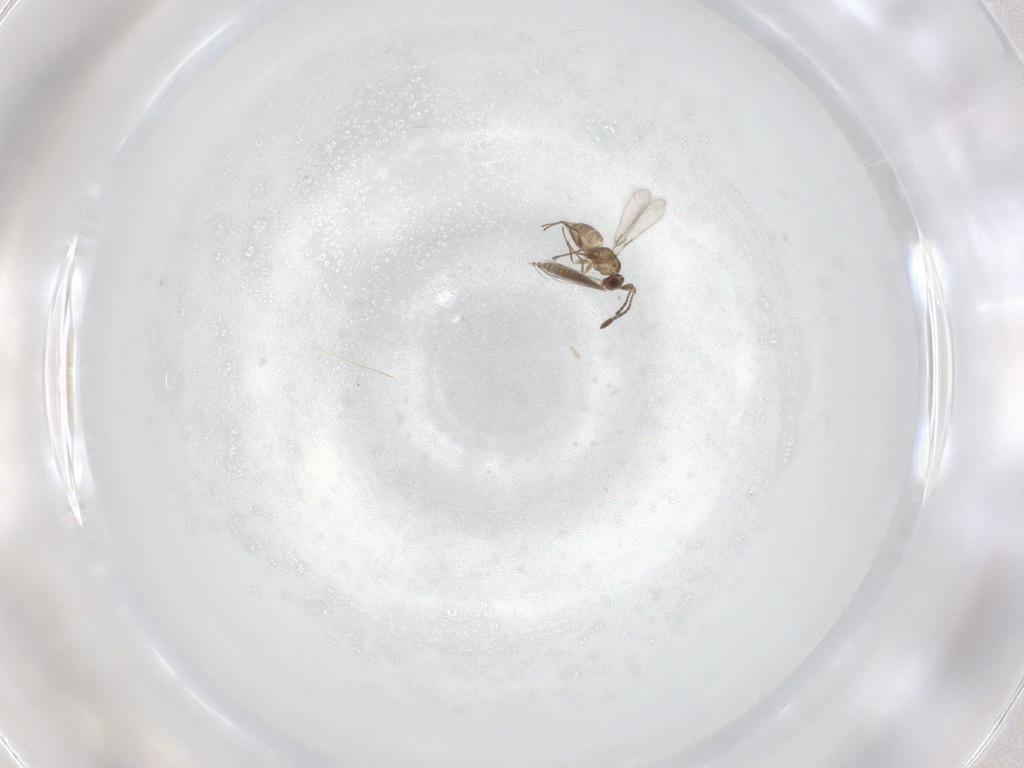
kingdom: Animalia
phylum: Arthropoda
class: Insecta
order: Hymenoptera
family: Mymaridae
